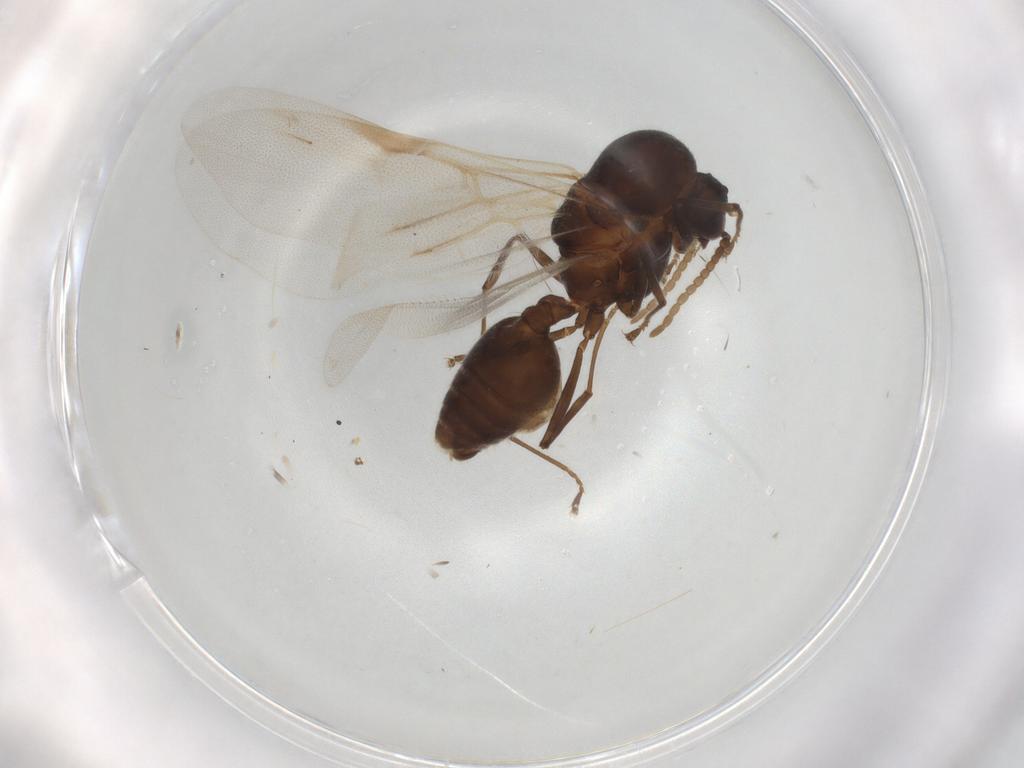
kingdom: Animalia
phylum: Arthropoda
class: Insecta
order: Hymenoptera
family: Formicidae
